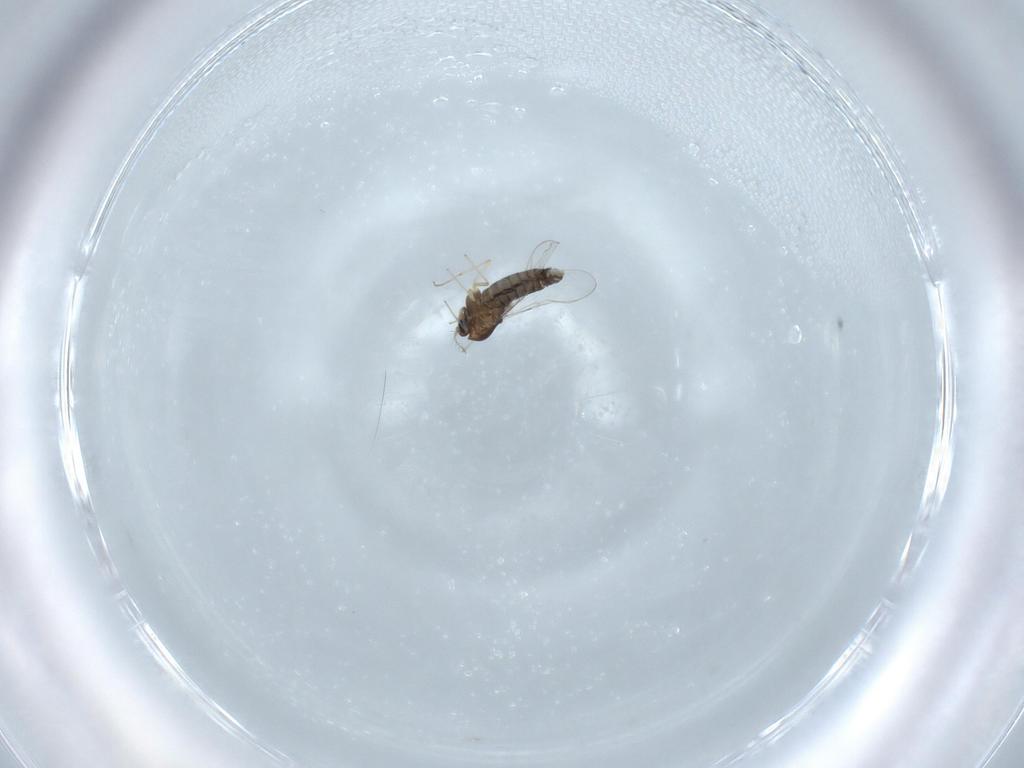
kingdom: Animalia
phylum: Arthropoda
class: Insecta
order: Diptera
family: Chironomidae
